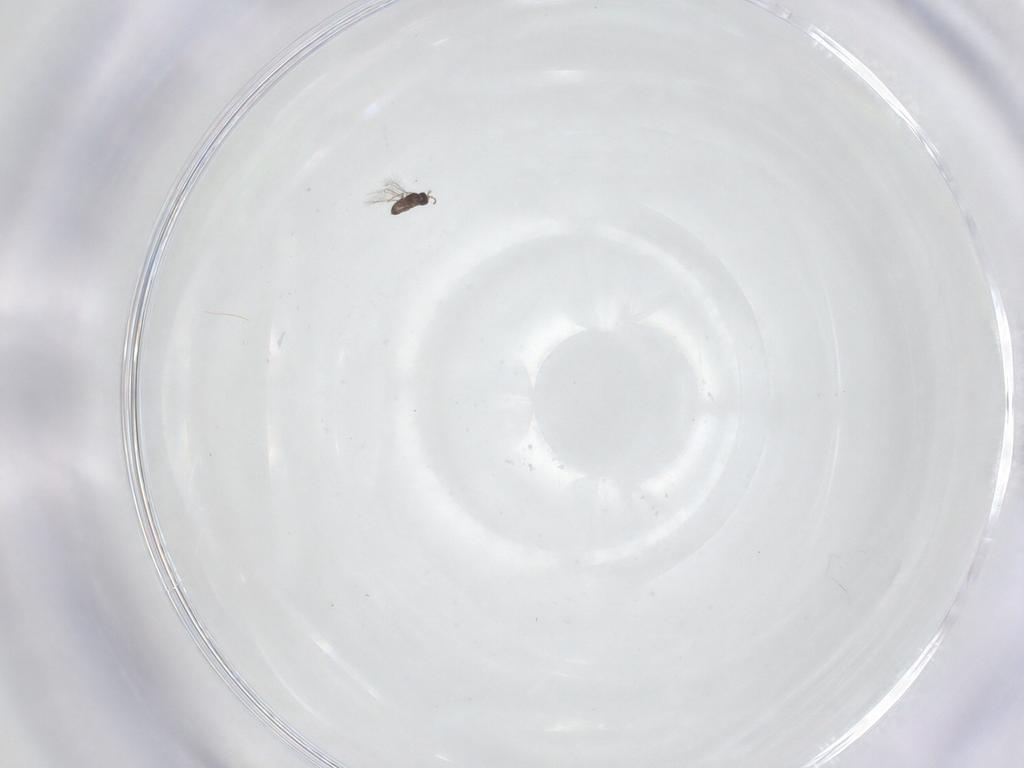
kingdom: Animalia
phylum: Arthropoda
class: Insecta
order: Hymenoptera
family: Mymaridae
